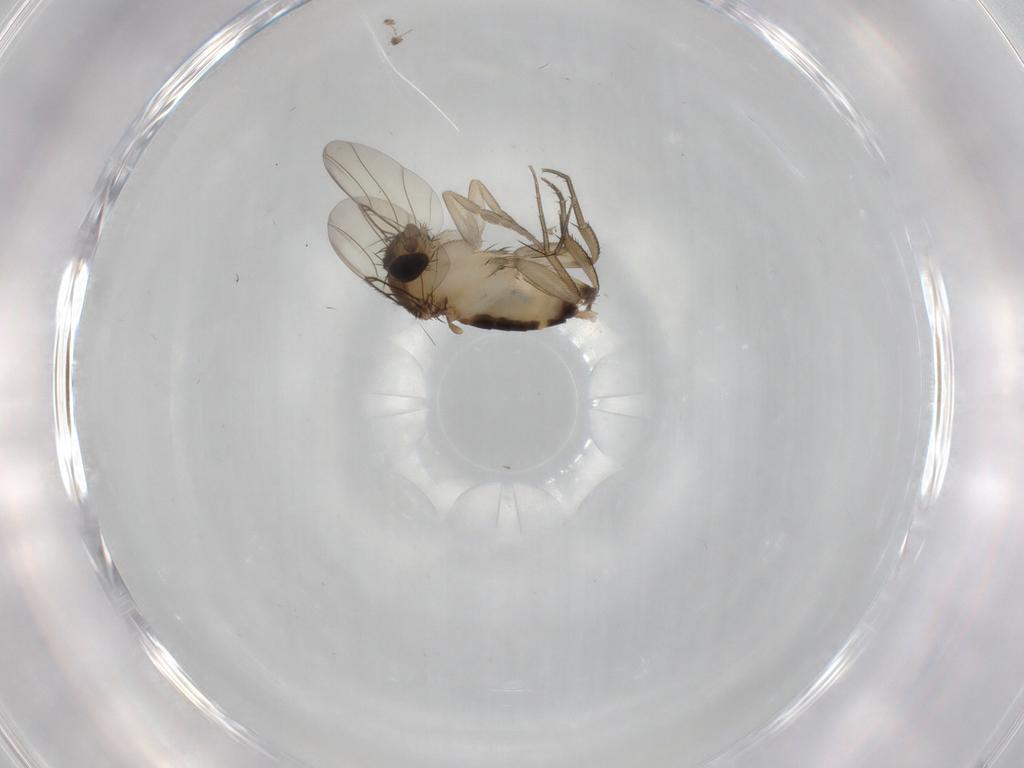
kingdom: Animalia
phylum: Arthropoda
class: Insecta
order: Diptera
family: Phoridae
